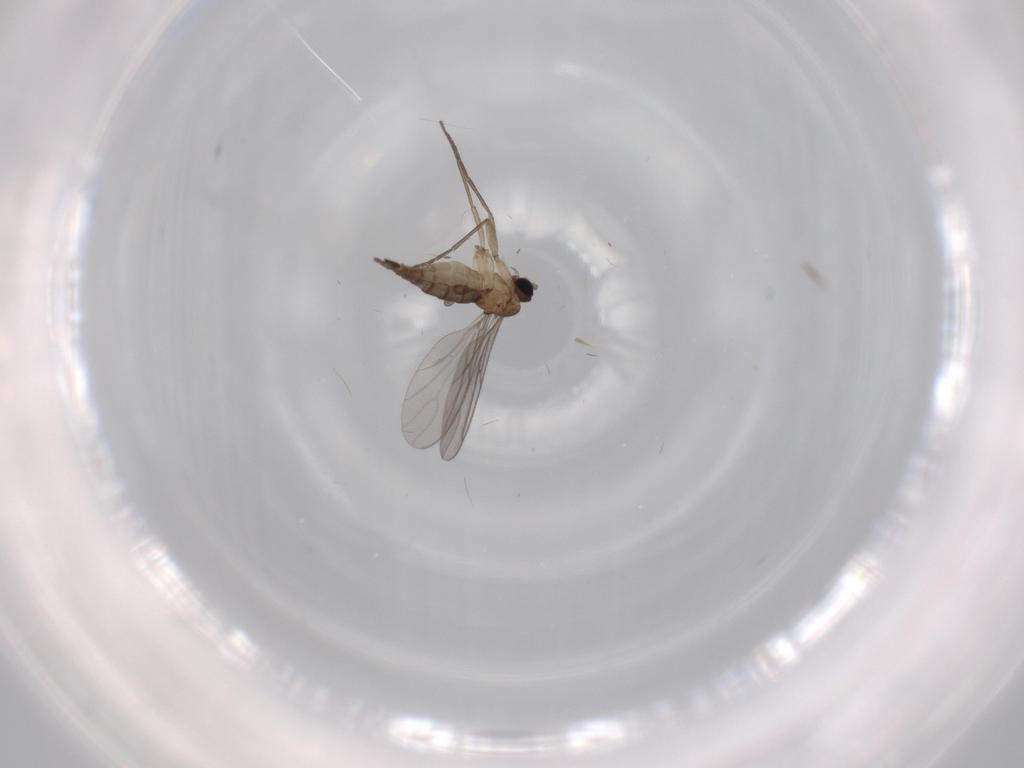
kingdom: Animalia
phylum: Arthropoda
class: Insecta
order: Diptera
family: Sciaridae
